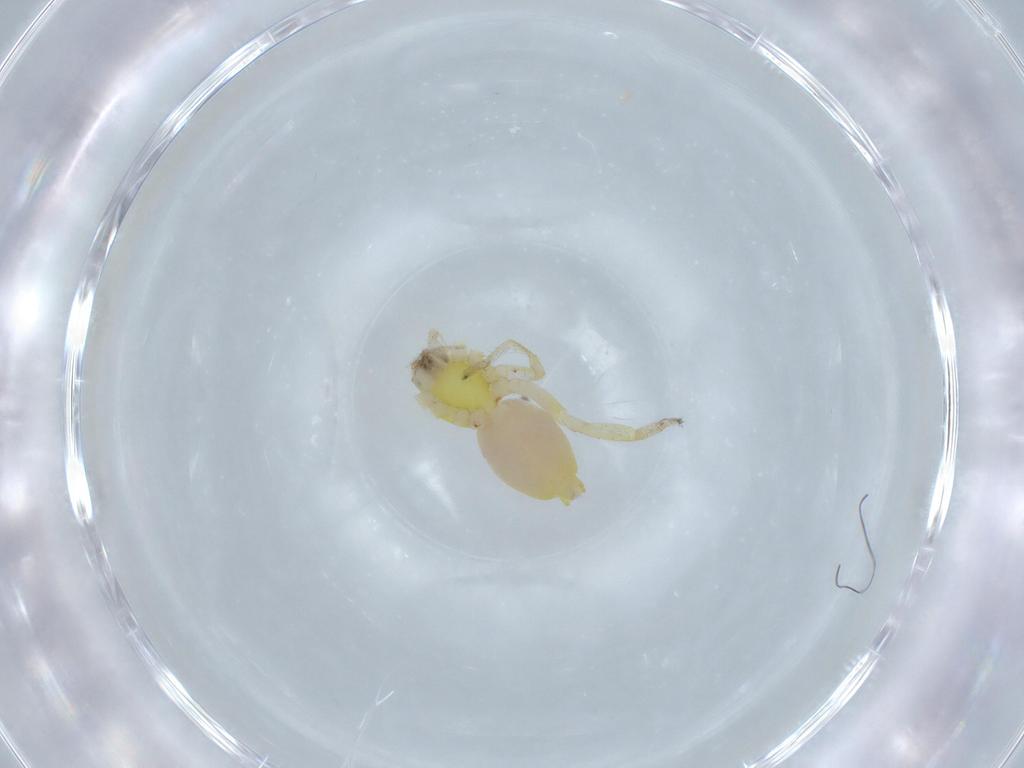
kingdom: Animalia
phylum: Arthropoda
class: Arachnida
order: Araneae
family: Anyphaenidae
